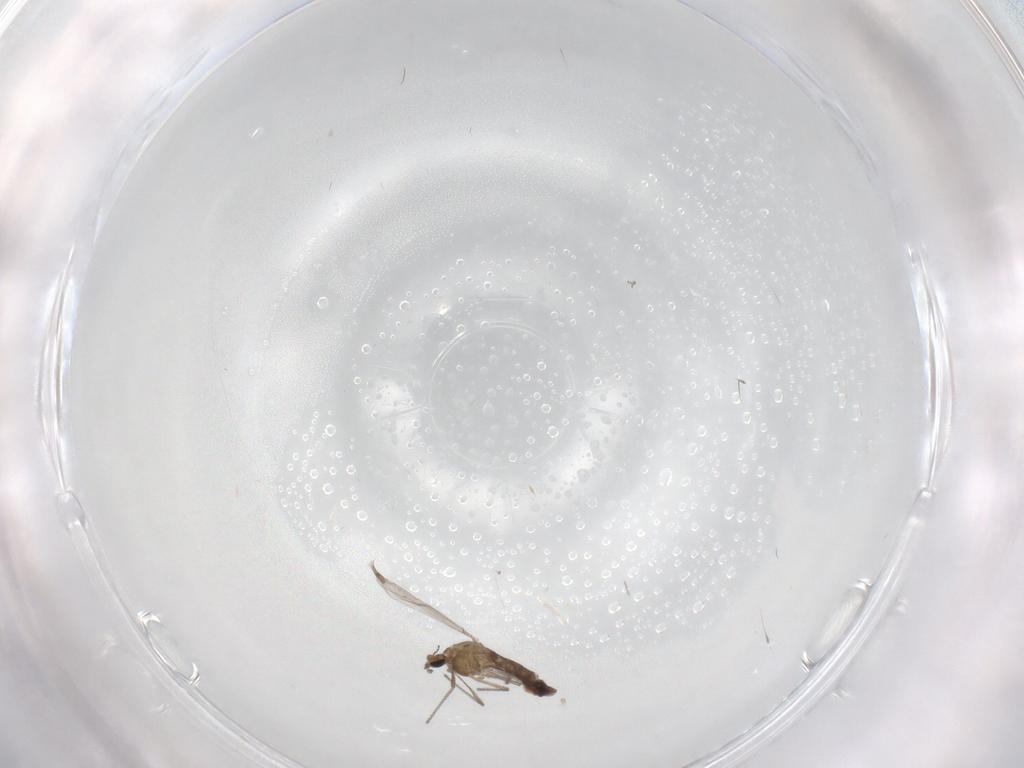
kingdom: Animalia
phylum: Arthropoda
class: Insecta
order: Diptera
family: Chironomidae
